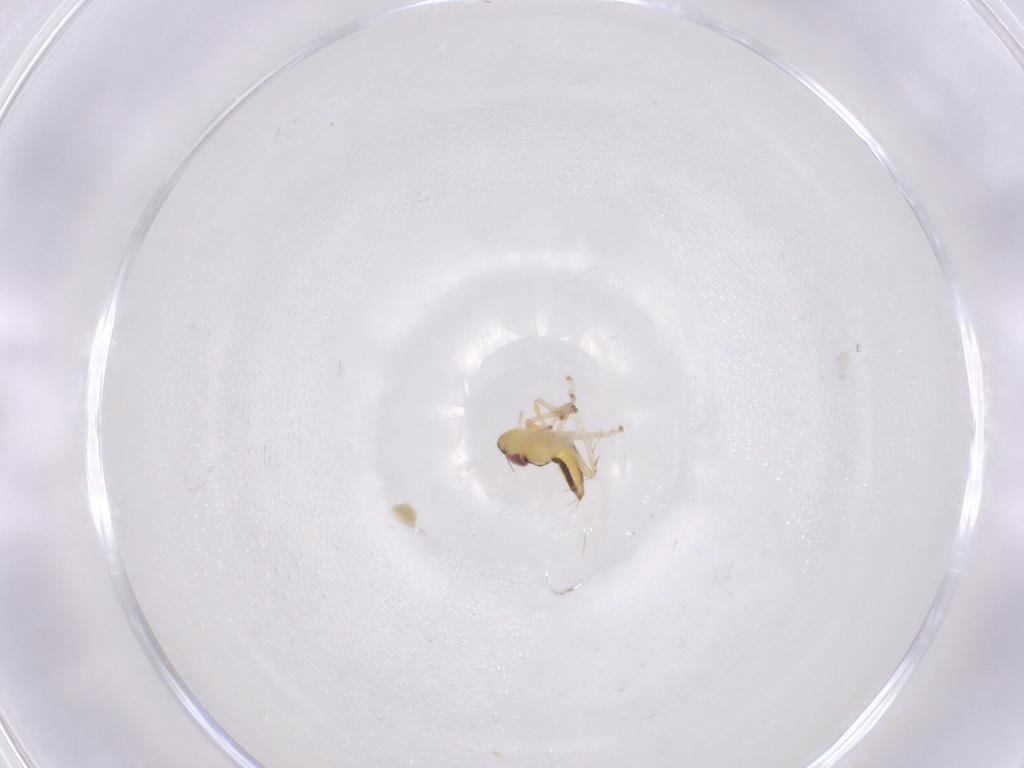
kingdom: Animalia
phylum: Arthropoda
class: Insecta
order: Hemiptera
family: Cicadellidae
